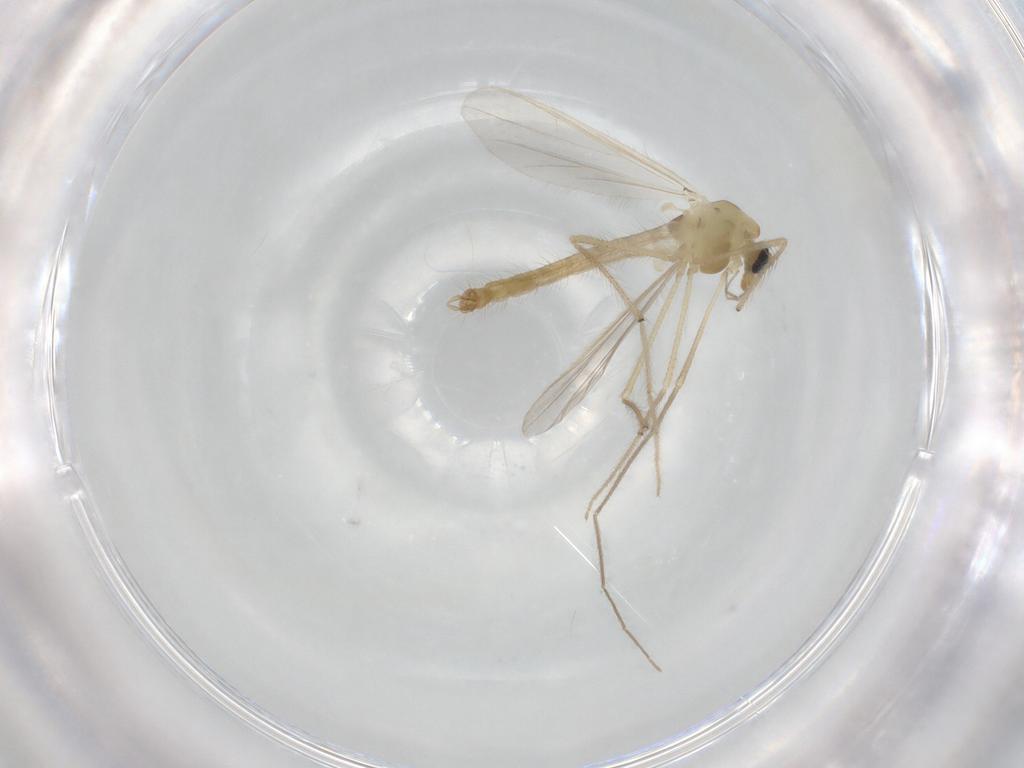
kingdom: Animalia
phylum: Arthropoda
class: Insecta
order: Diptera
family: Chironomidae
